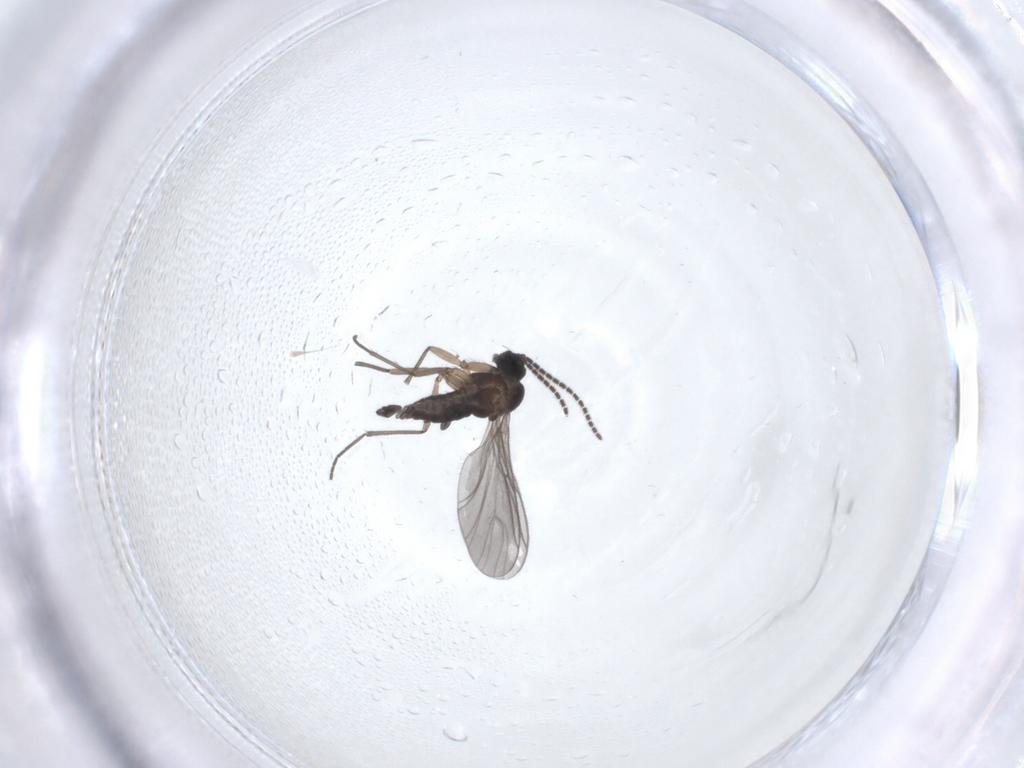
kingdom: Animalia
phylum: Arthropoda
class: Insecta
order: Diptera
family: Sciaridae
